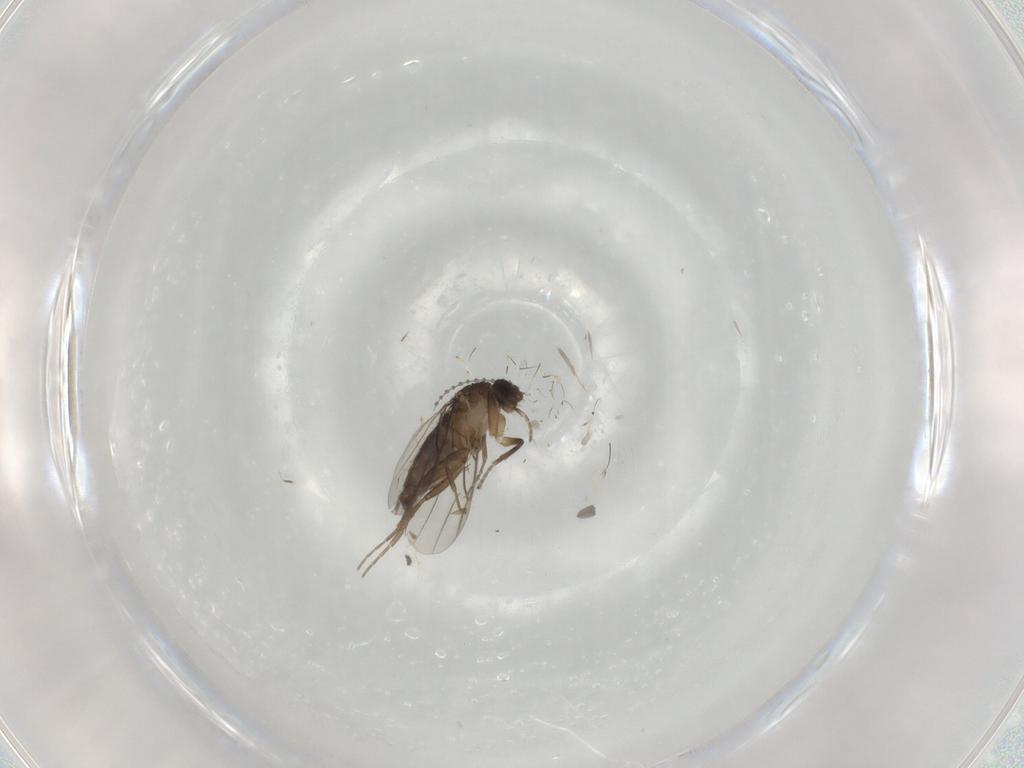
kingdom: Animalia
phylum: Arthropoda
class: Insecta
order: Diptera
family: Phoridae
